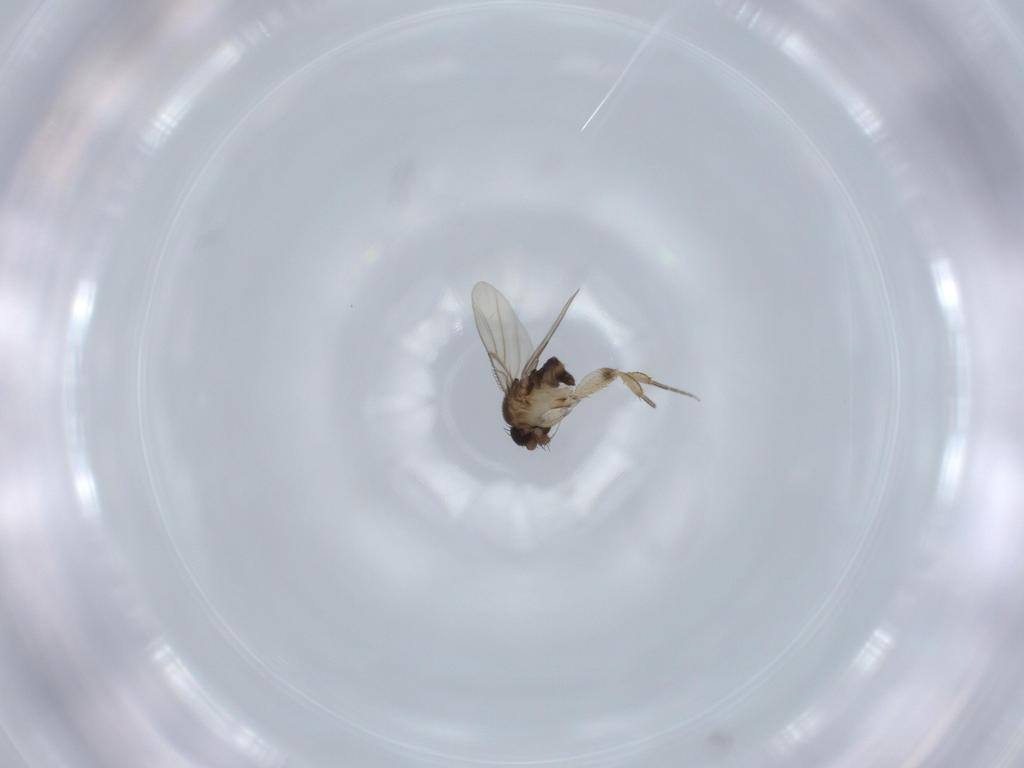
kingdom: Animalia
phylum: Arthropoda
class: Insecta
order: Diptera
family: Phoridae
